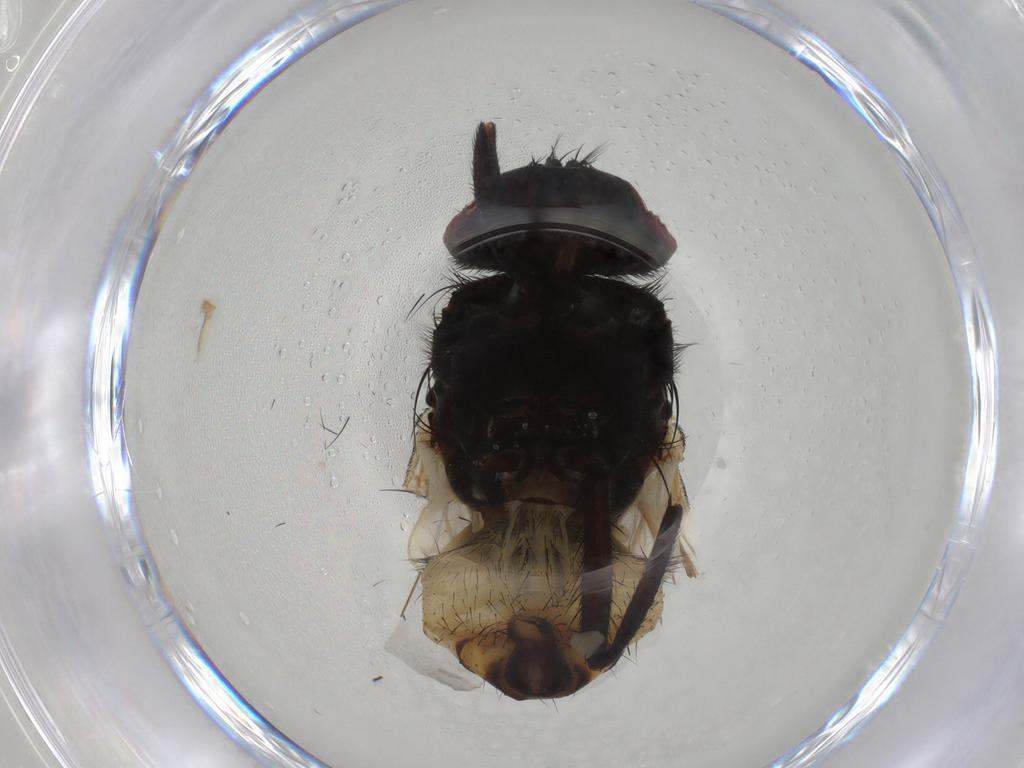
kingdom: Animalia
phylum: Arthropoda
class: Insecta
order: Diptera
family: Muscidae
